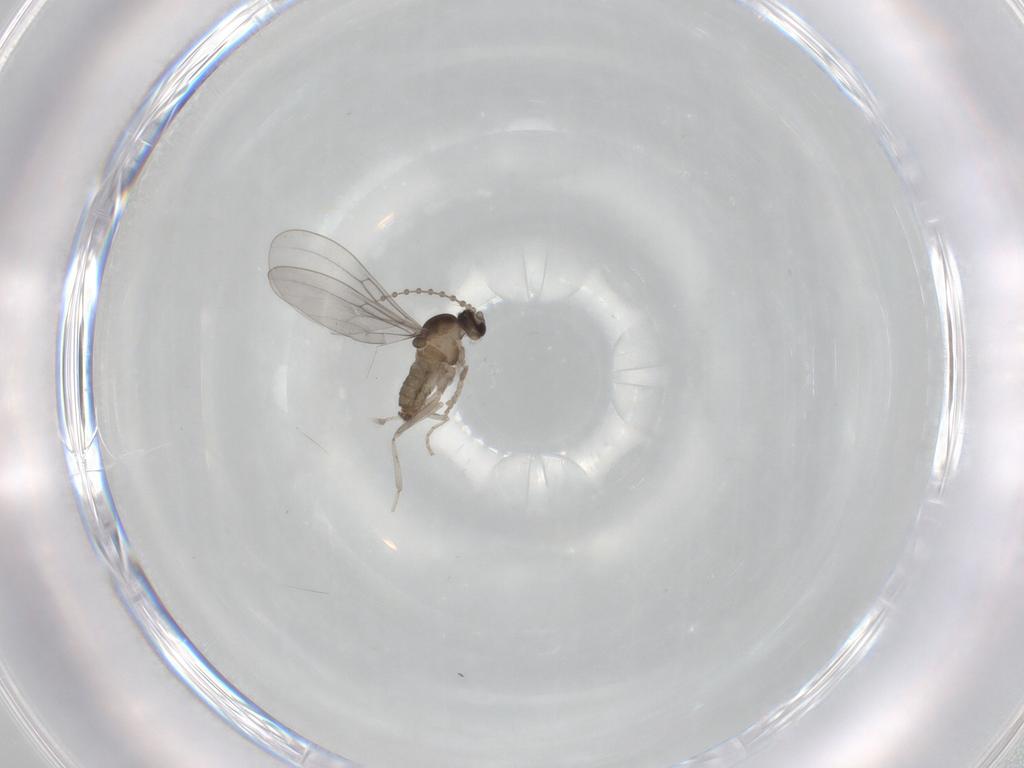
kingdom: Animalia
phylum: Arthropoda
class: Insecta
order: Diptera
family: Cecidomyiidae
